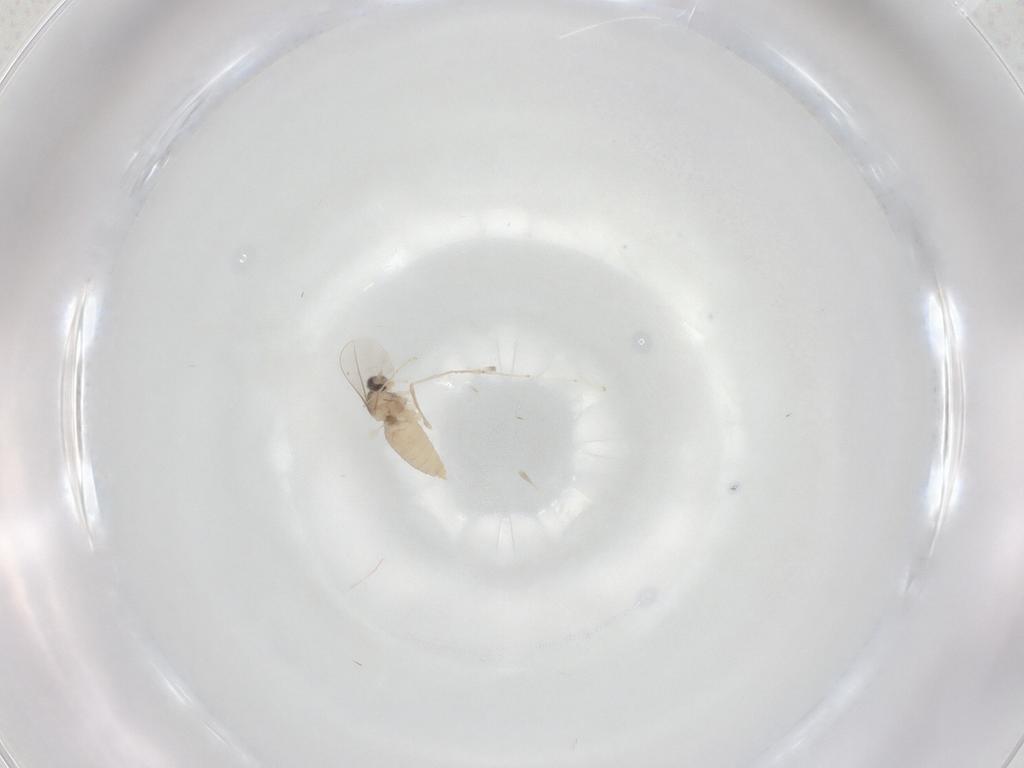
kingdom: Animalia
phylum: Arthropoda
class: Insecta
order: Diptera
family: Cecidomyiidae
